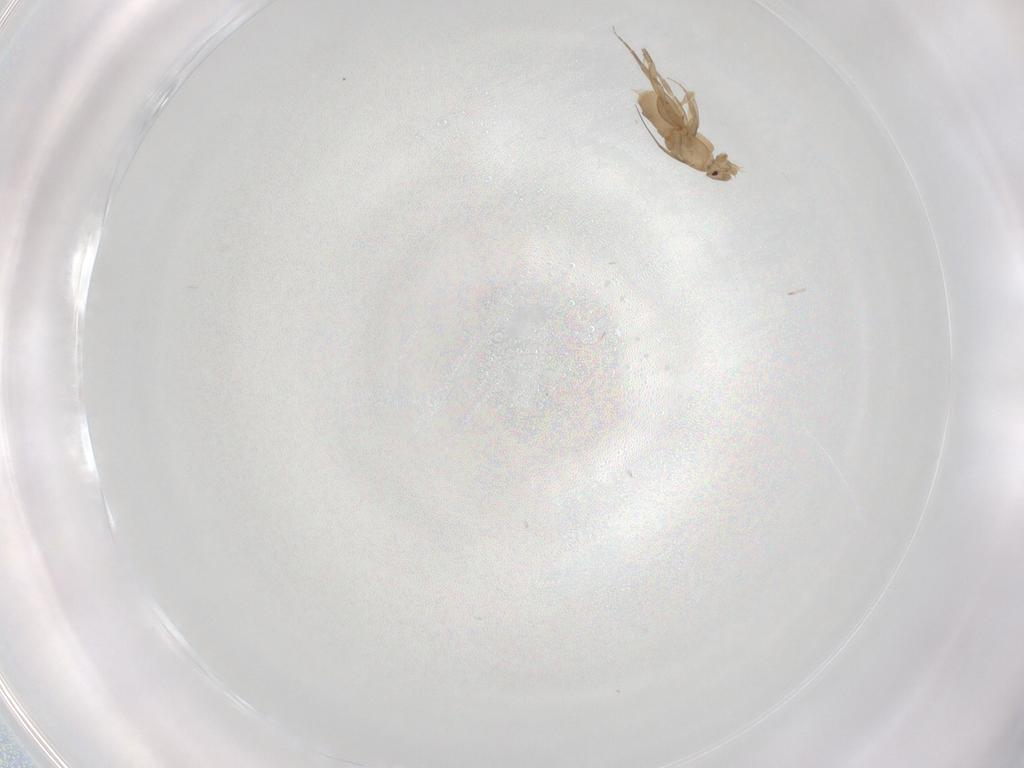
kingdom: Animalia
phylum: Arthropoda
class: Insecta
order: Diptera
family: Phoridae
